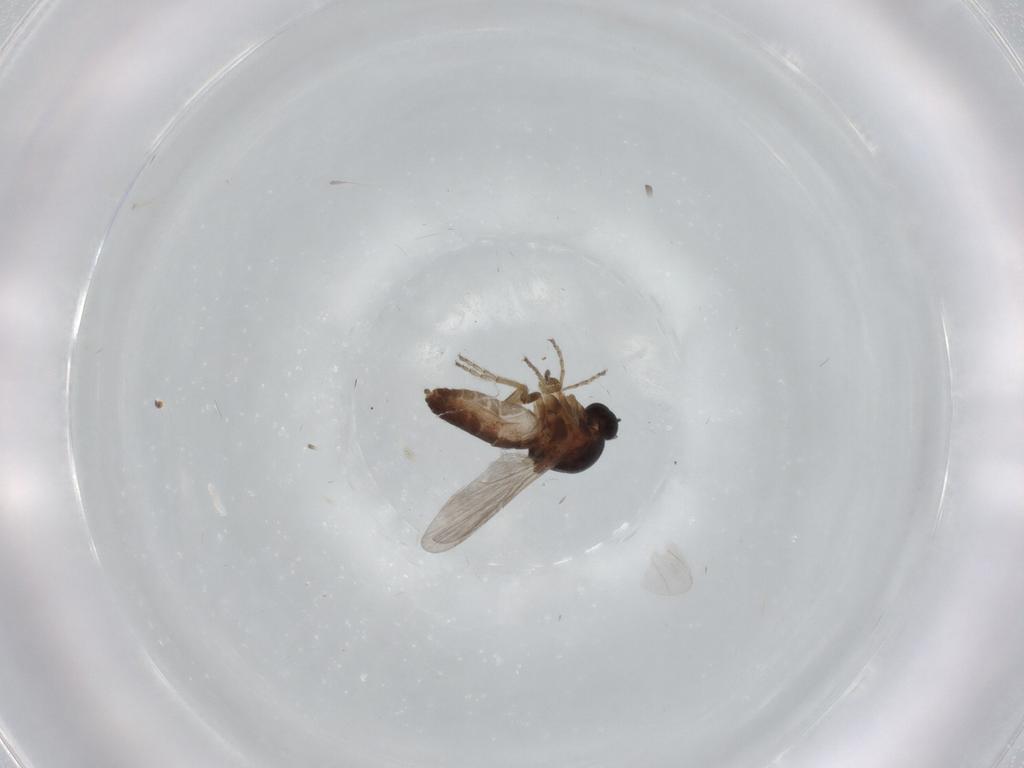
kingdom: Animalia
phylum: Arthropoda
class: Insecta
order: Diptera
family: Ceratopogonidae
